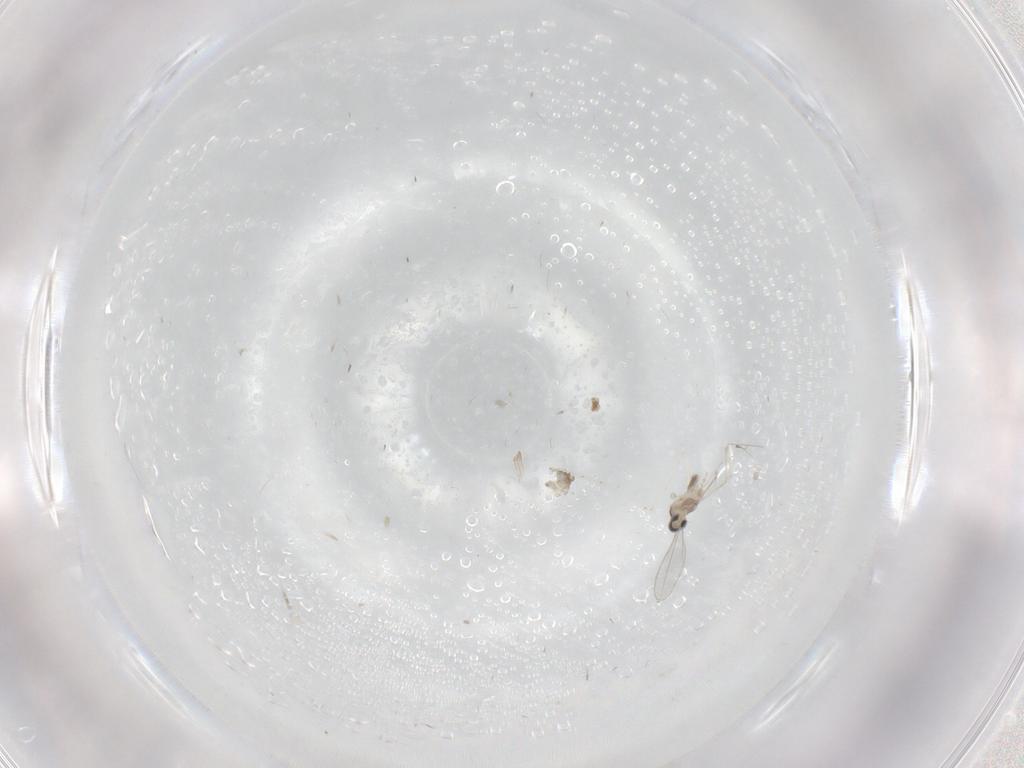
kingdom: Animalia
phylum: Arthropoda
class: Insecta
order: Diptera
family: Cecidomyiidae
